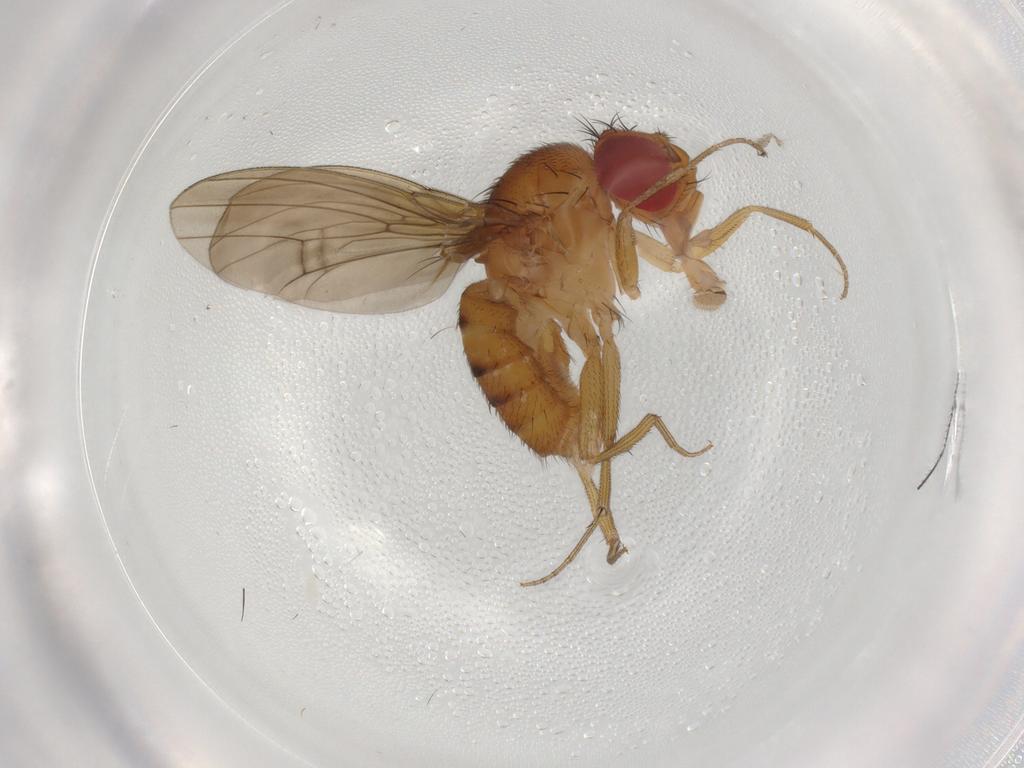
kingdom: Animalia
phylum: Arthropoda
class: Insecta
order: Diptera
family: Drosophilidae
